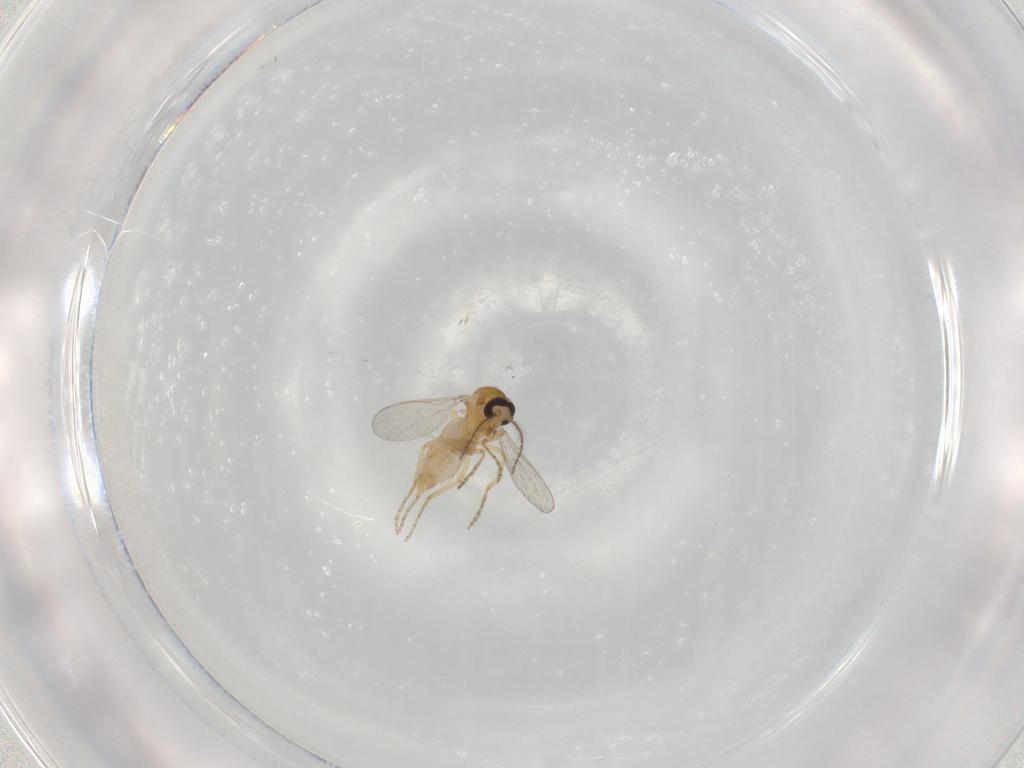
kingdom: Animalia
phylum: Arthropoda
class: Insecta
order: Diptera
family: Ceratopogonidae
